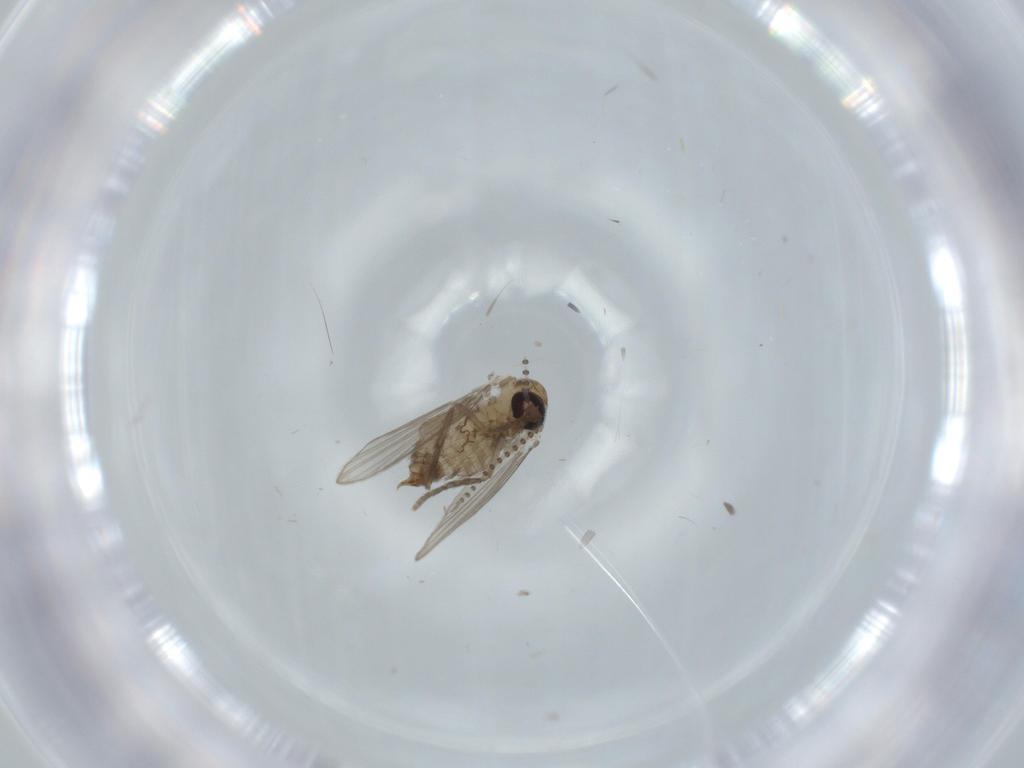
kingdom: Animalia
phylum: Arthropoda
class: Insecta
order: Diptera
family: Psychodidae
